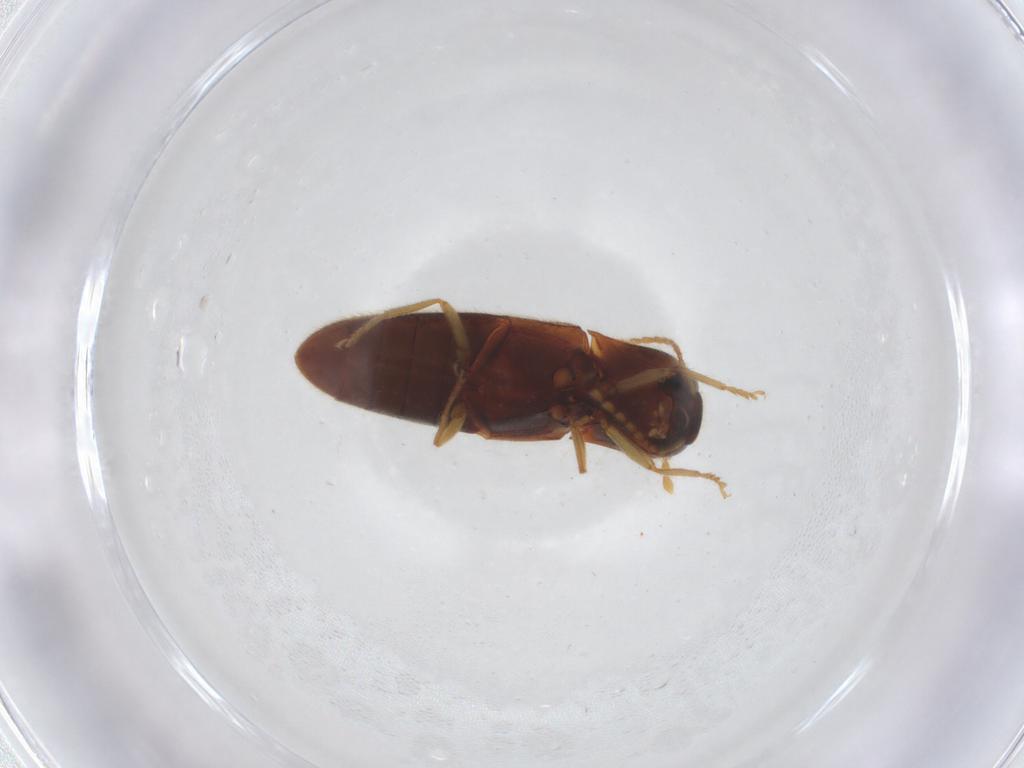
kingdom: Animalia
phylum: Arthropoda
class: Insecta
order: Coleoptera
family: Elateridae
